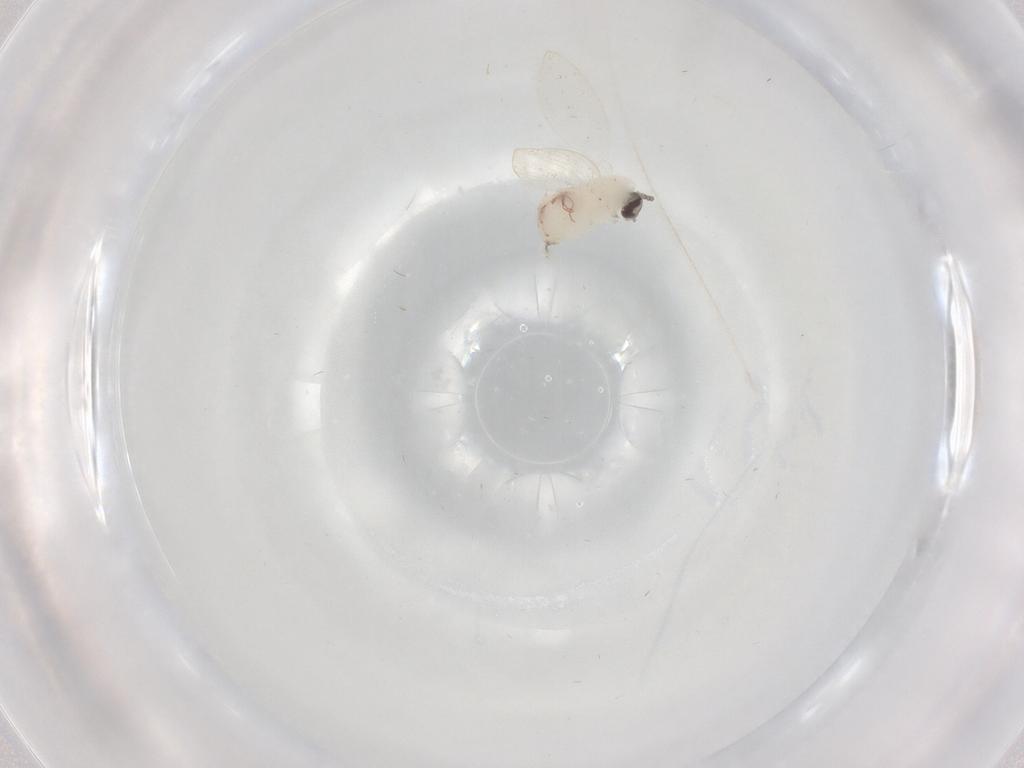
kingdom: Animalia
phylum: Arthropoda
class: Insecta
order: Diptera
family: Psychodidae
